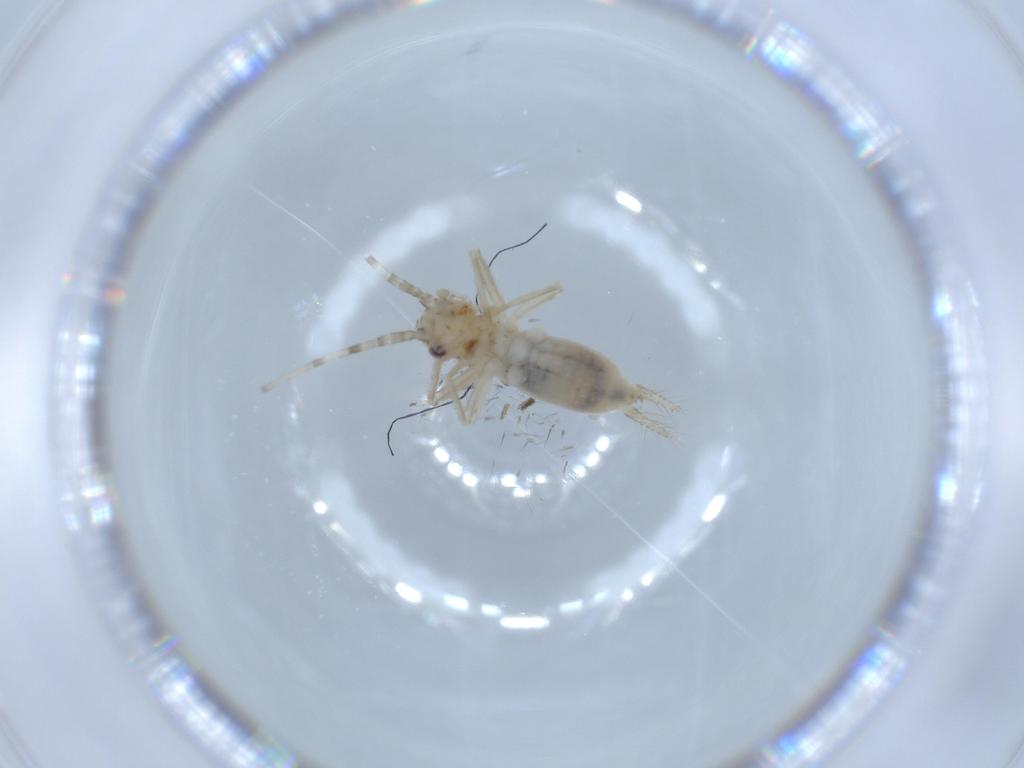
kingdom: Animalia
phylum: Arthropoda
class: Insecta
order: Orthoptera
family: Trigonidiidae
